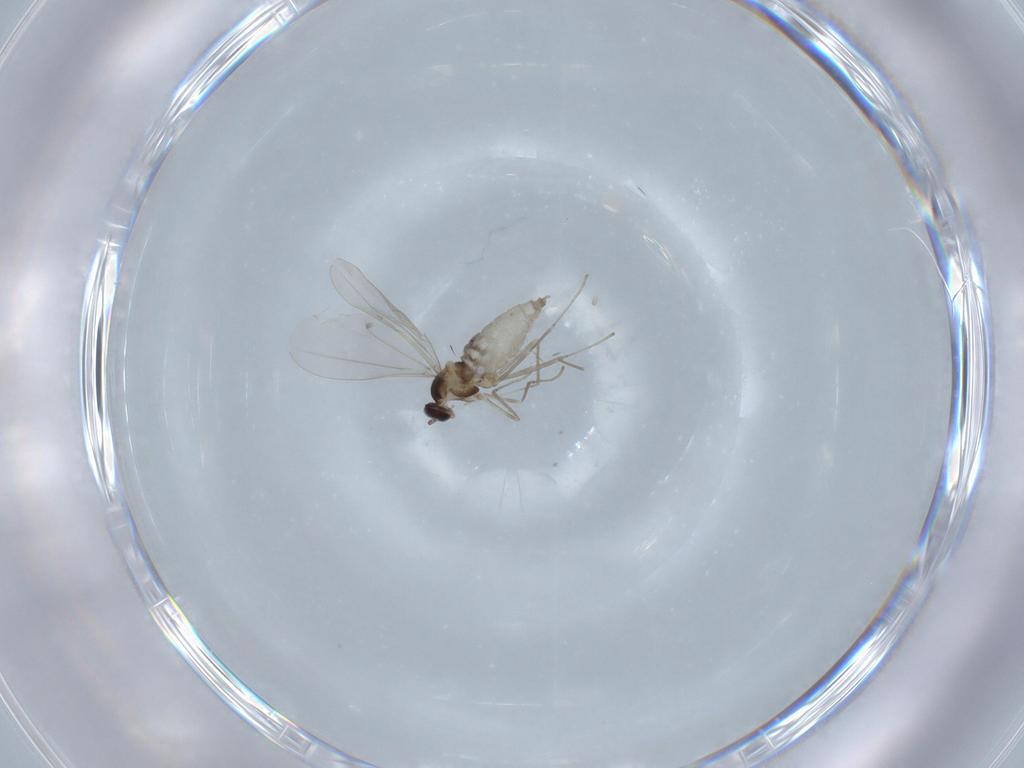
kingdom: Animalia
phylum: Arthropoda
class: Insecta
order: Diptera
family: Cecidomyiidae
